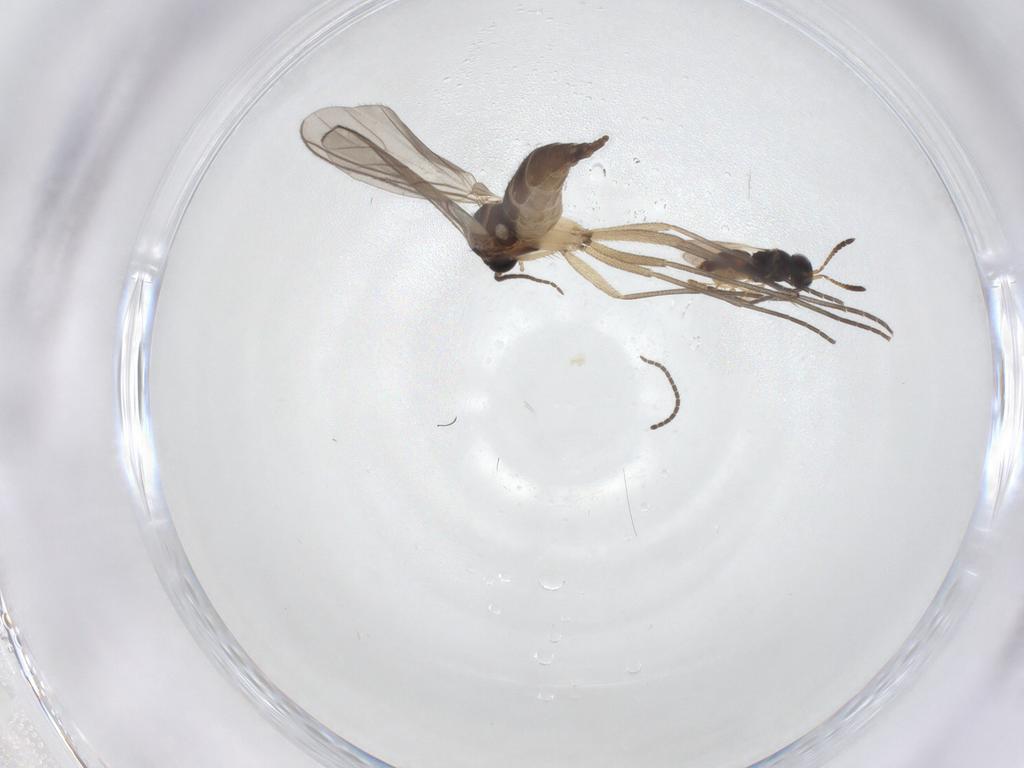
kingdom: Animalia
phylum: Arthropoda
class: Insecta
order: Diptera
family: Sciaridae
